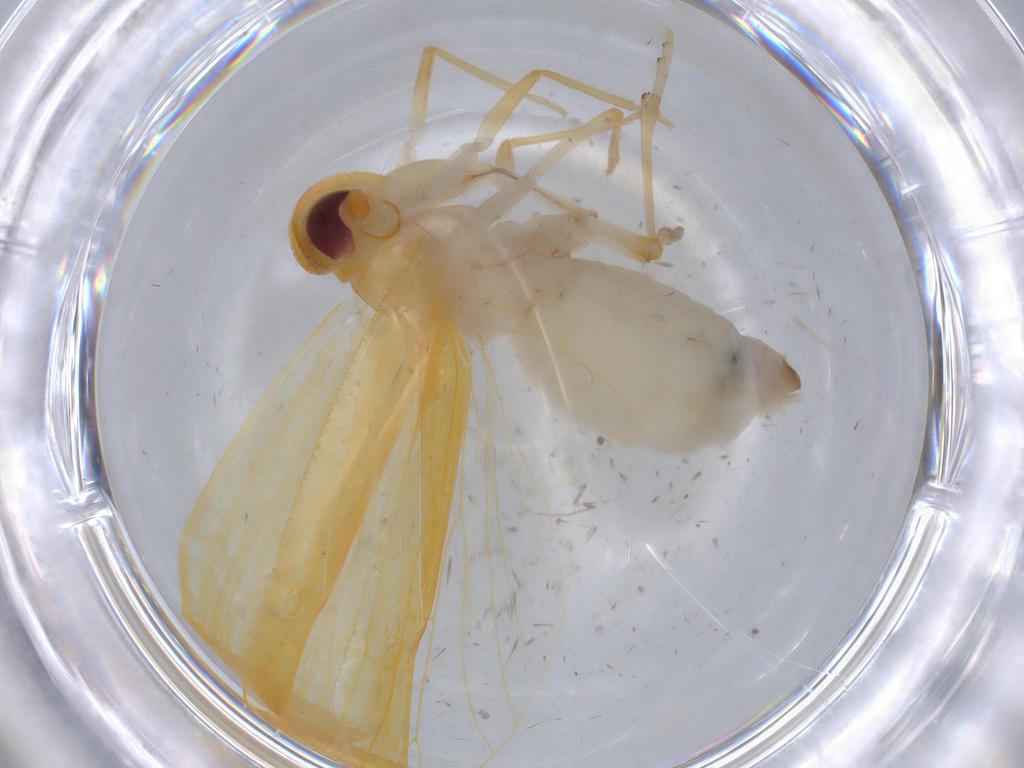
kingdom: Animalia
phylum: Arthropoda
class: Insecta
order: Hemiptera
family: Derbidae
